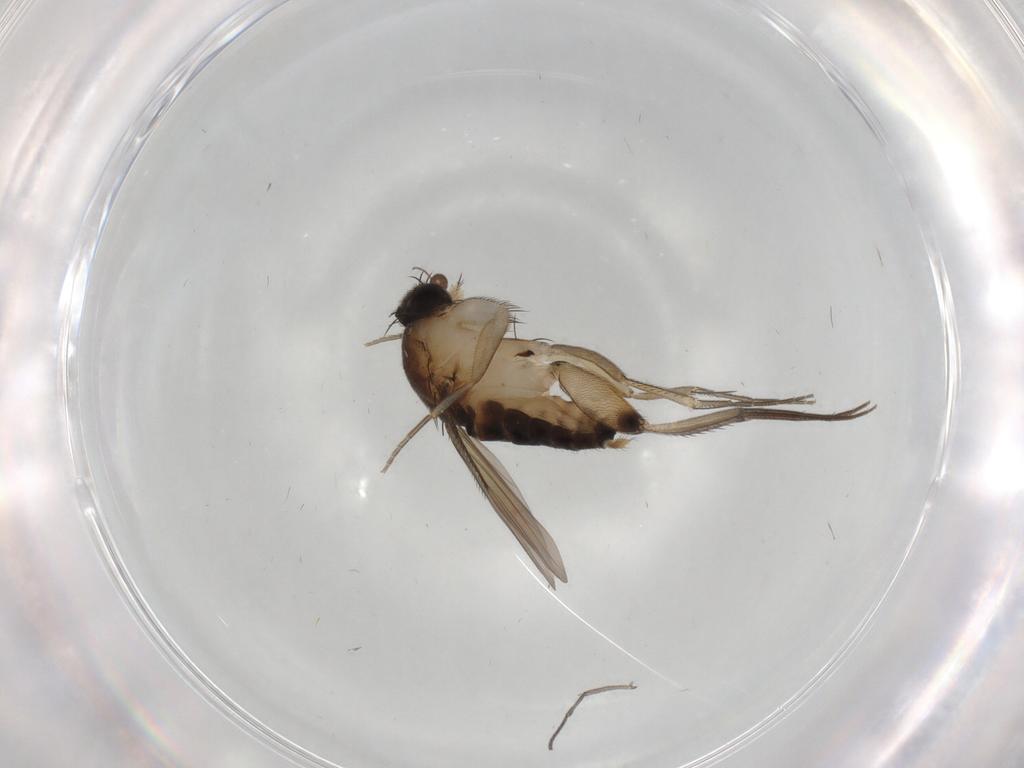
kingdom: Animalia
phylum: Arthropoda
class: Insecta
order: Diptera
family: Phoridae
